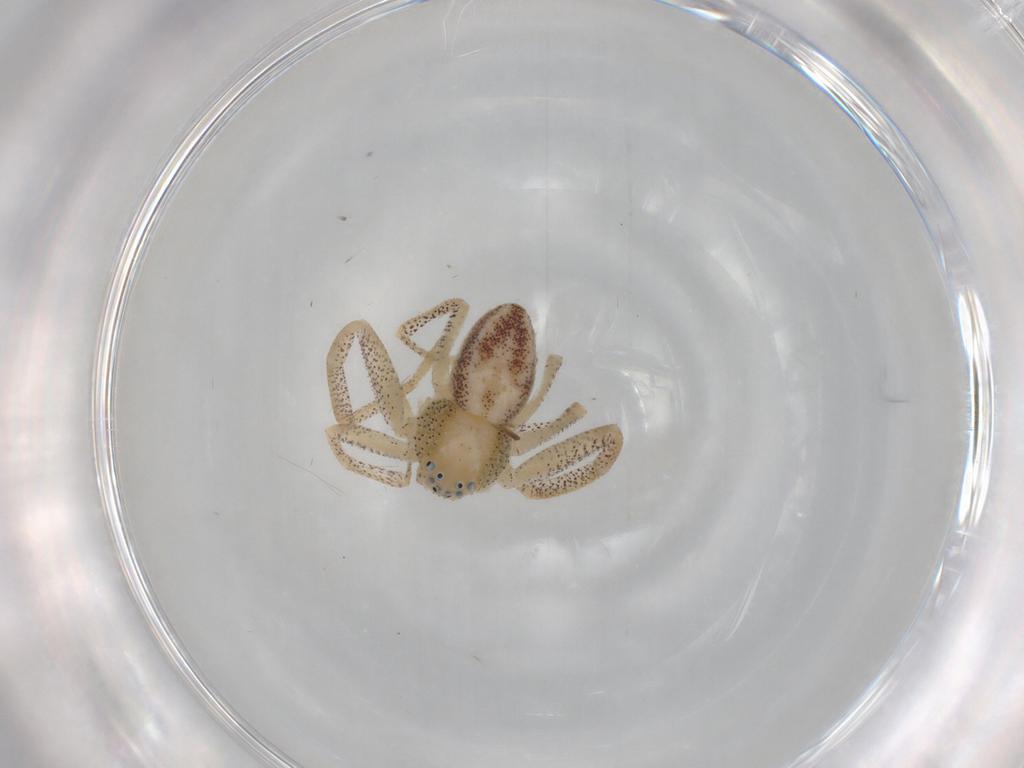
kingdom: Animalia
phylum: Arthropoda
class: Arachnida
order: Araneae
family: Philodromidae
